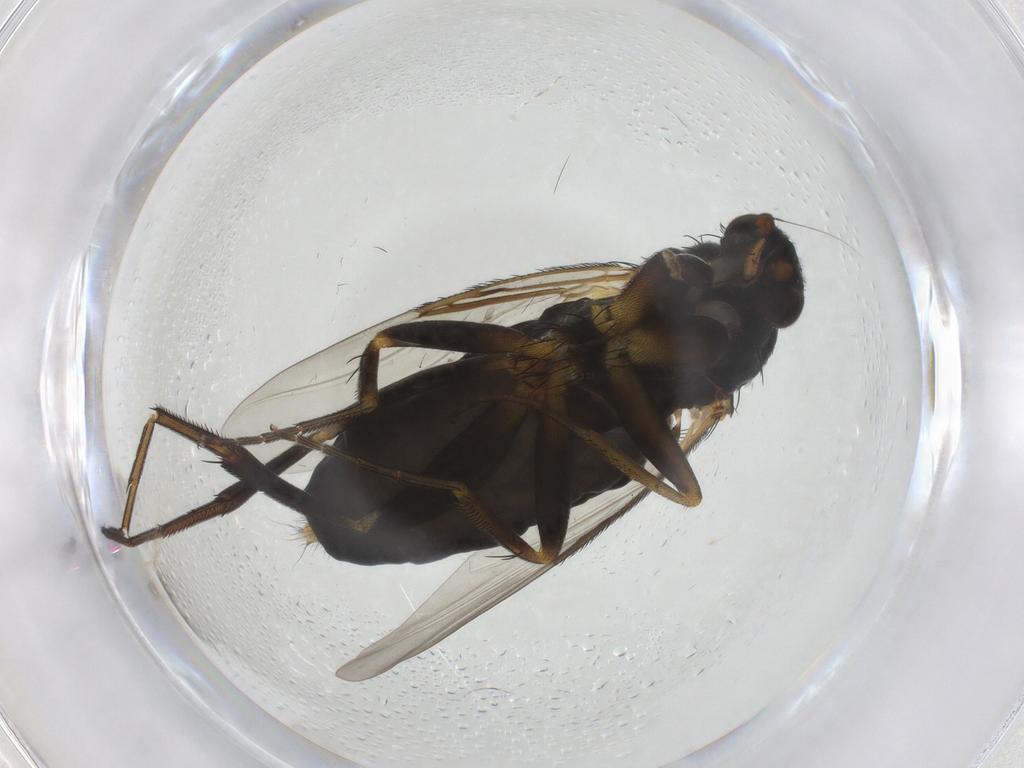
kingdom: Animalia
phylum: Arthropoda
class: Insecta
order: Diptera
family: Phoridae
